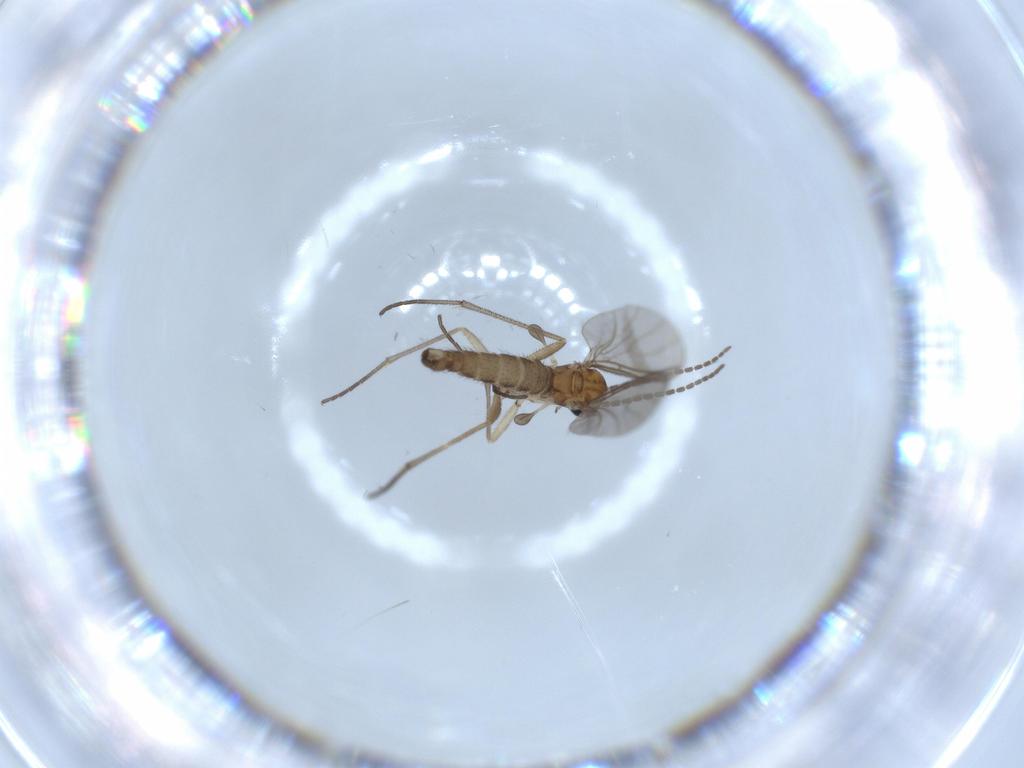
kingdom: Animalia
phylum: Arthropoda
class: Insecta
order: Diptera
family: Sciaridae
